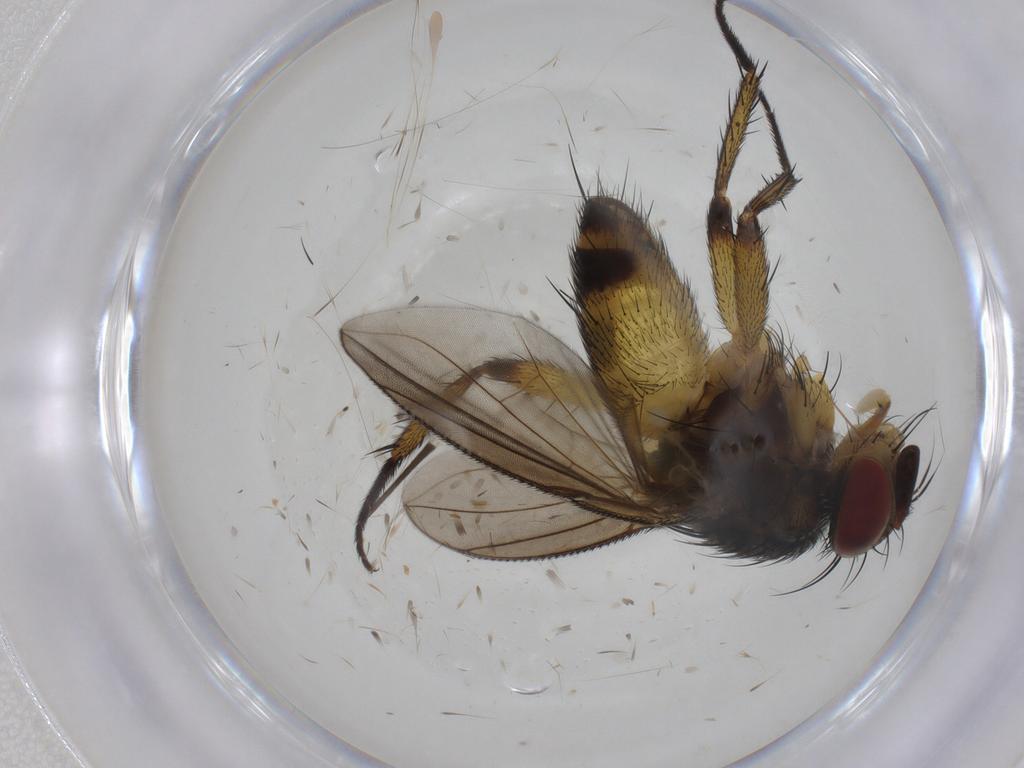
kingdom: Animalia
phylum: Arthropoda
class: Insecta
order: Diptera
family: Tachinidae
